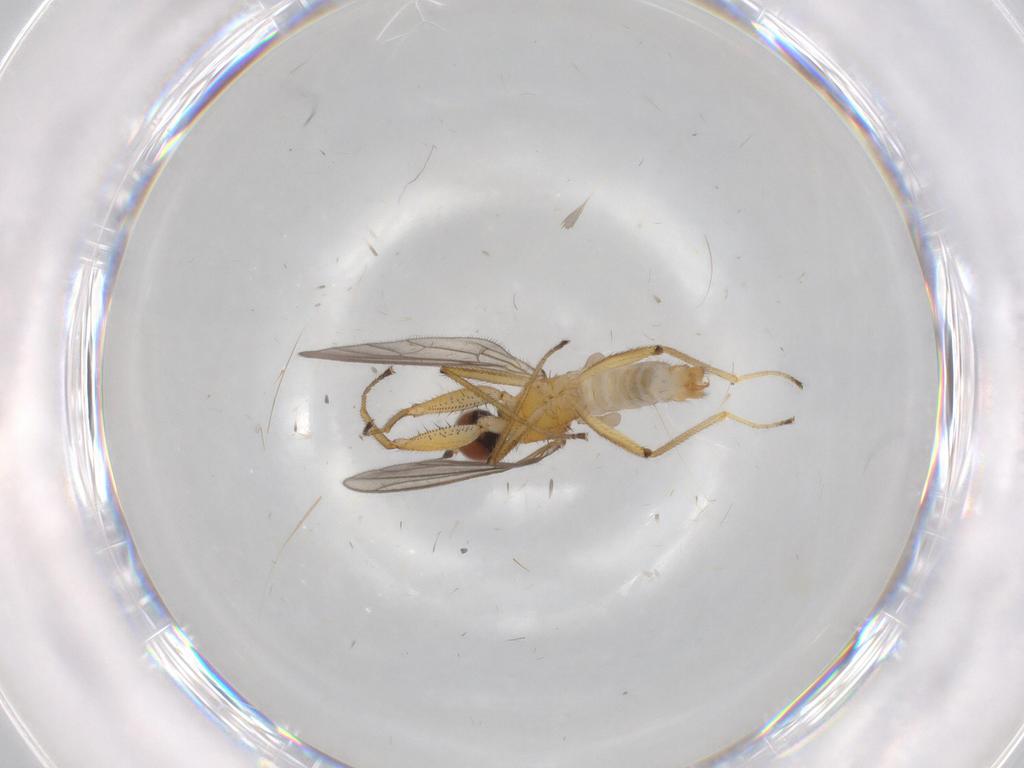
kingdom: Animalia
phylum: Arthropoda
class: Insecta
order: Diptera
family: Empididae
